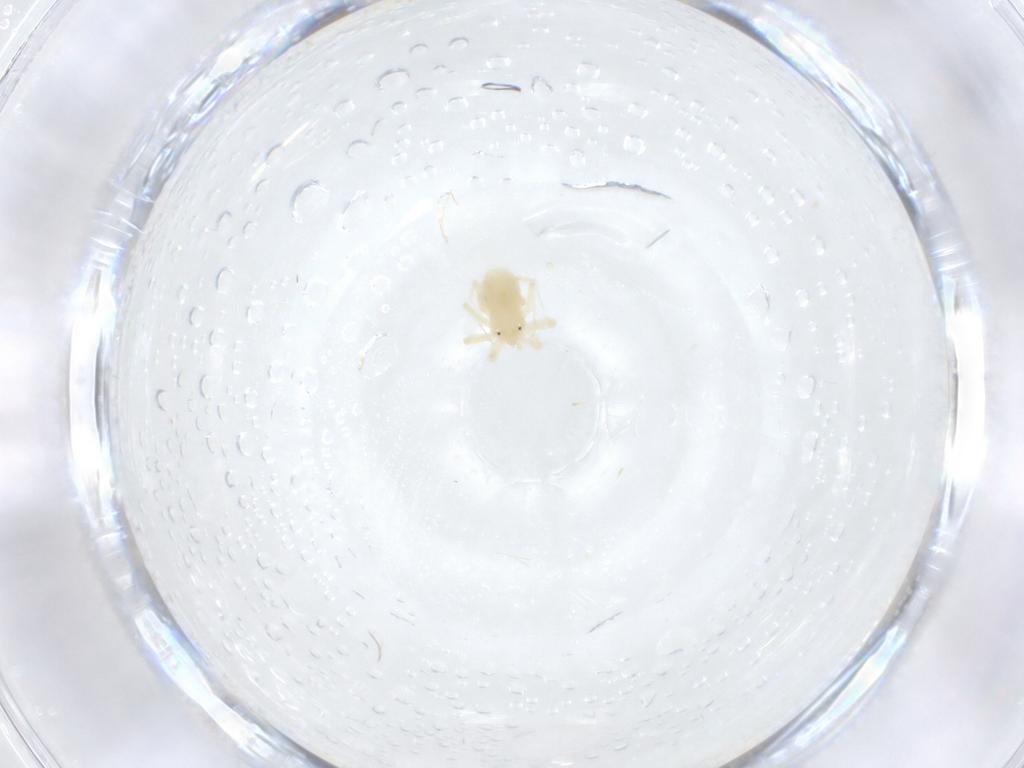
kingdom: Animalia
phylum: Arthropoda
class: Arachnida
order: Trombidiformes
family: Anystidae
